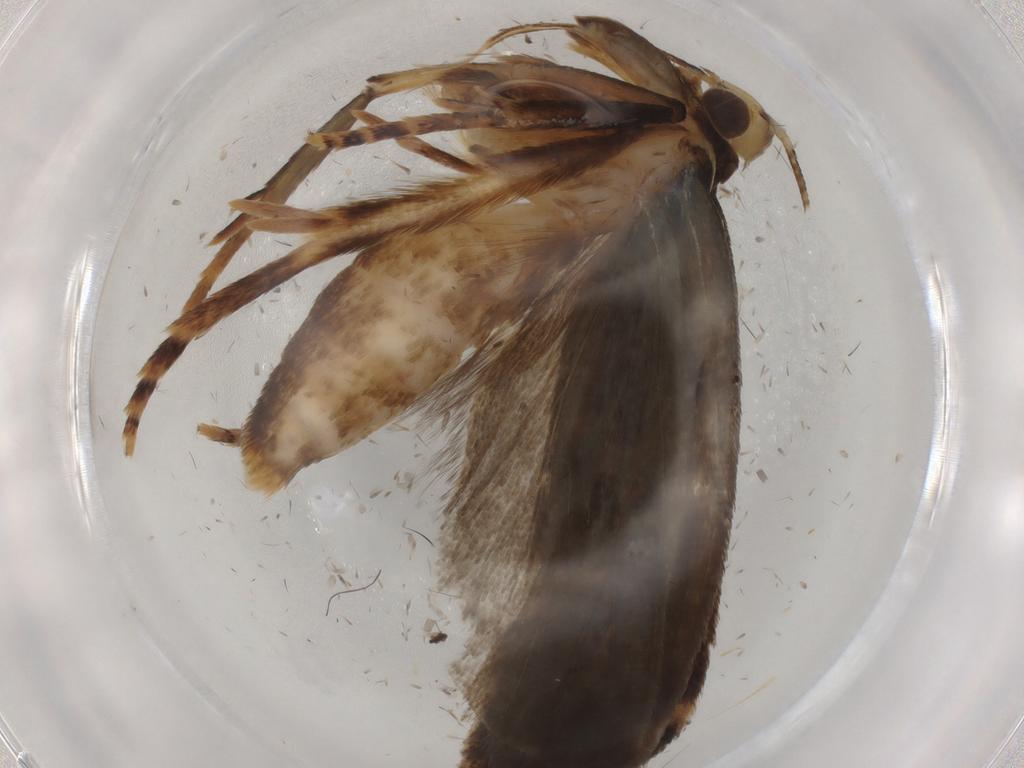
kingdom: Animalia
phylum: Arthropoda
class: Insecta
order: Lepidoptera
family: Gelechiidae
